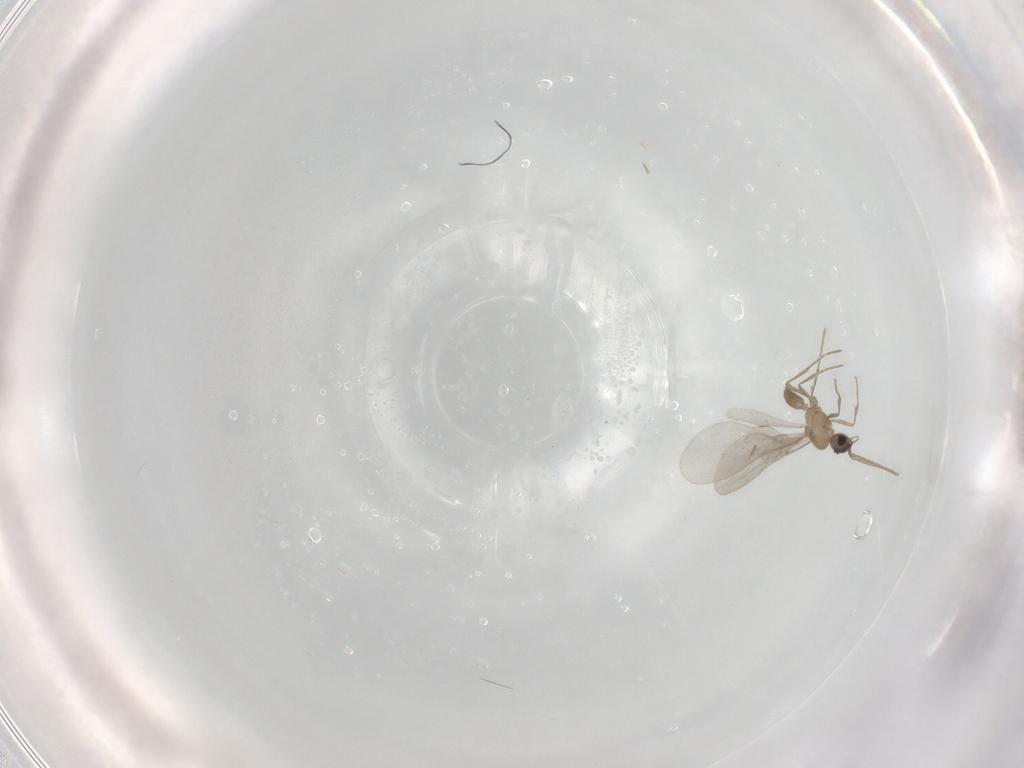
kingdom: Animalia
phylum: Arthropoda
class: Insecta
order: Hymenoptera
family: Formicidae
